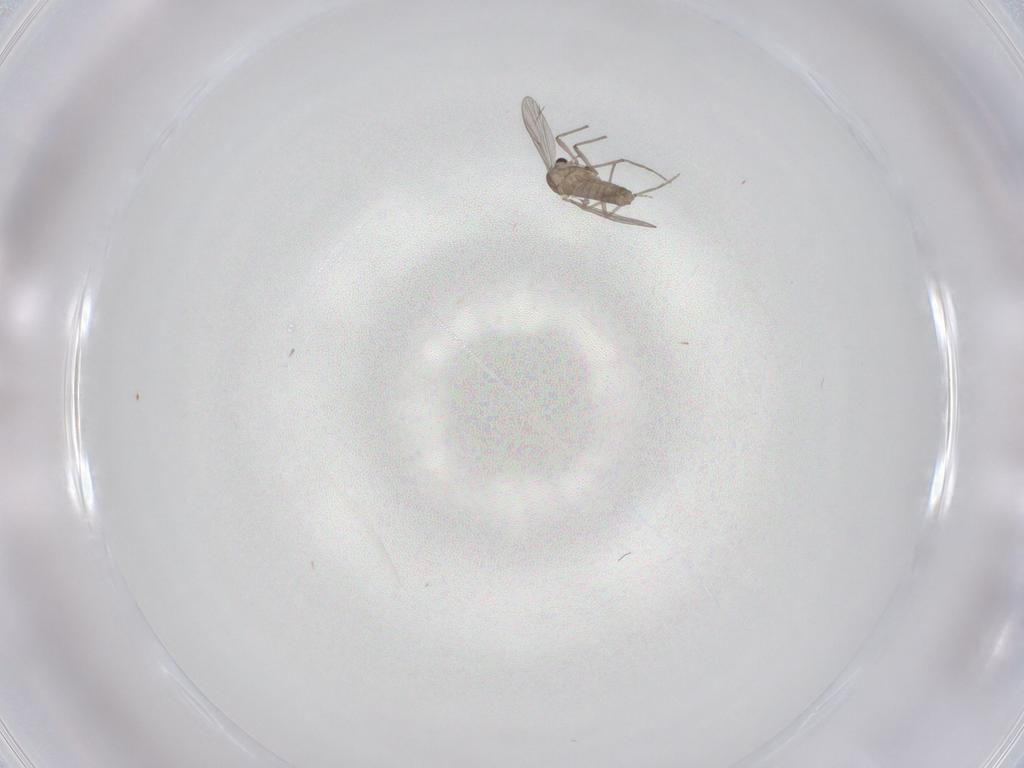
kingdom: Animalia
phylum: Arthropoda
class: Insecta
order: Diptera
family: Chironomidae
